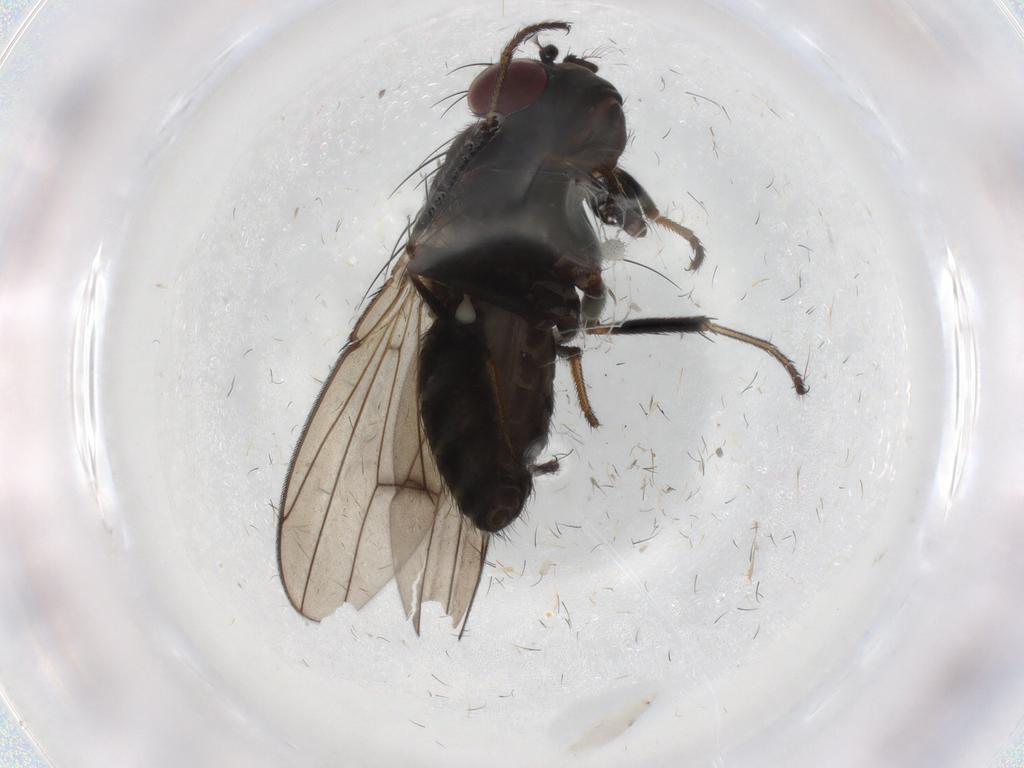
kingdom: Animalia
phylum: Arthropoda
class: Insecta
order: Diptera
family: Ephydridae
